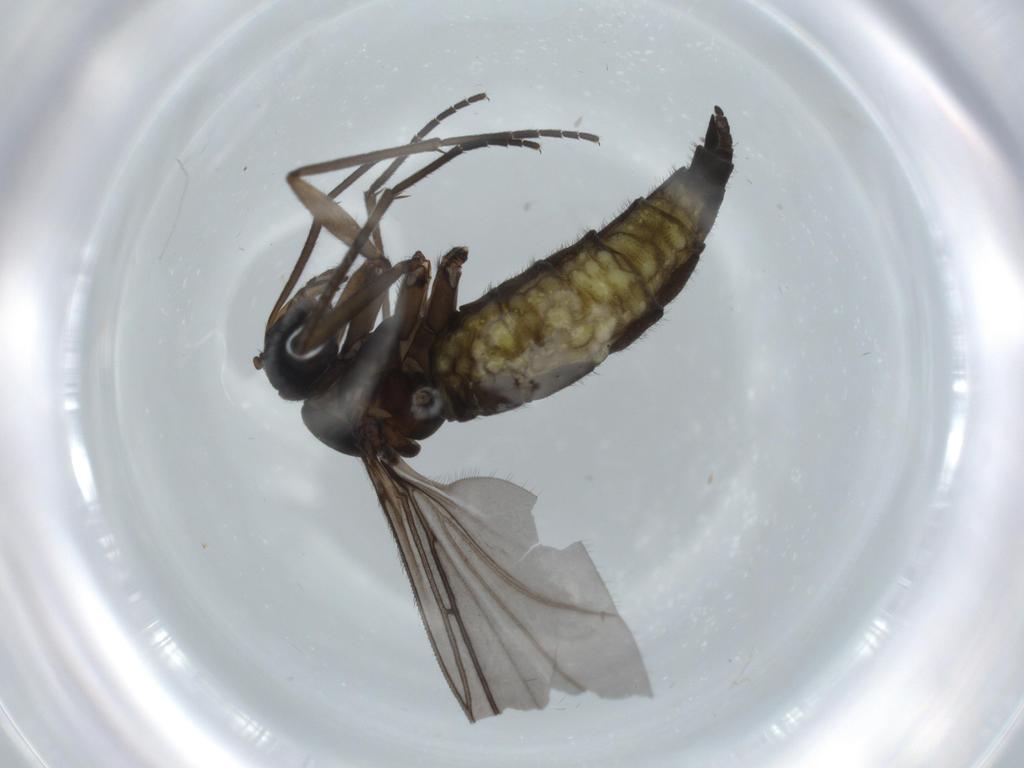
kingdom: Animalia
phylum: Arthropoda
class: Insecta
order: Diptera
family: Sciaridae
